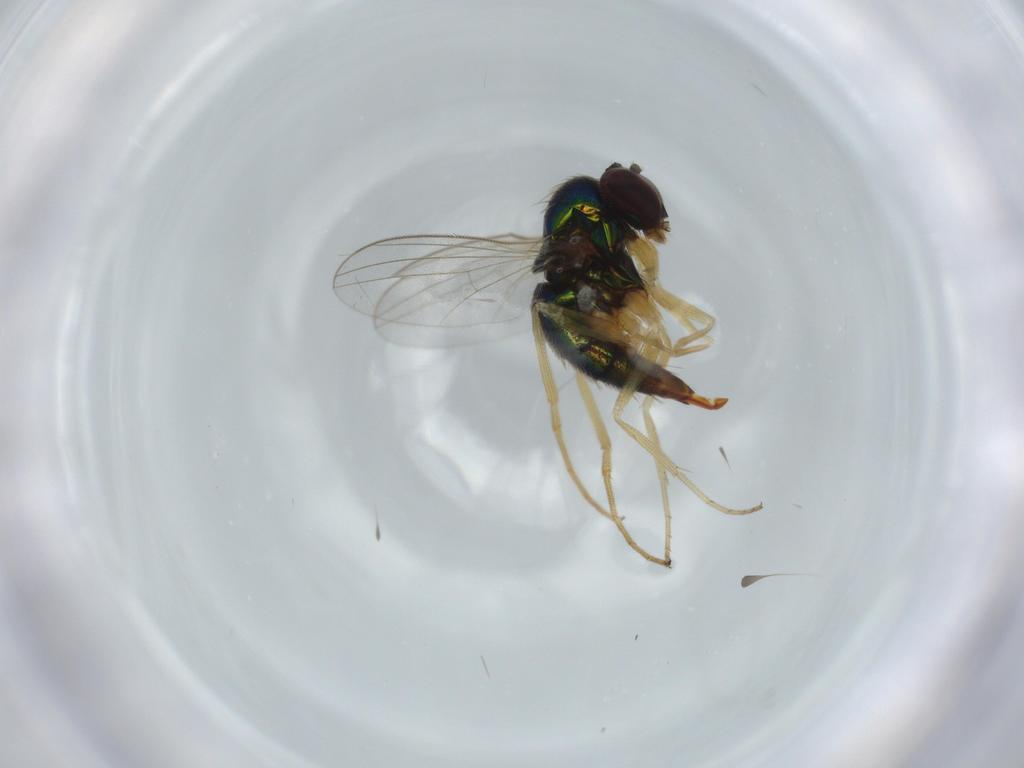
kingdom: Animalia
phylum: Arthropoda
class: Insecta
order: Diptera
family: Dolichopodidae
